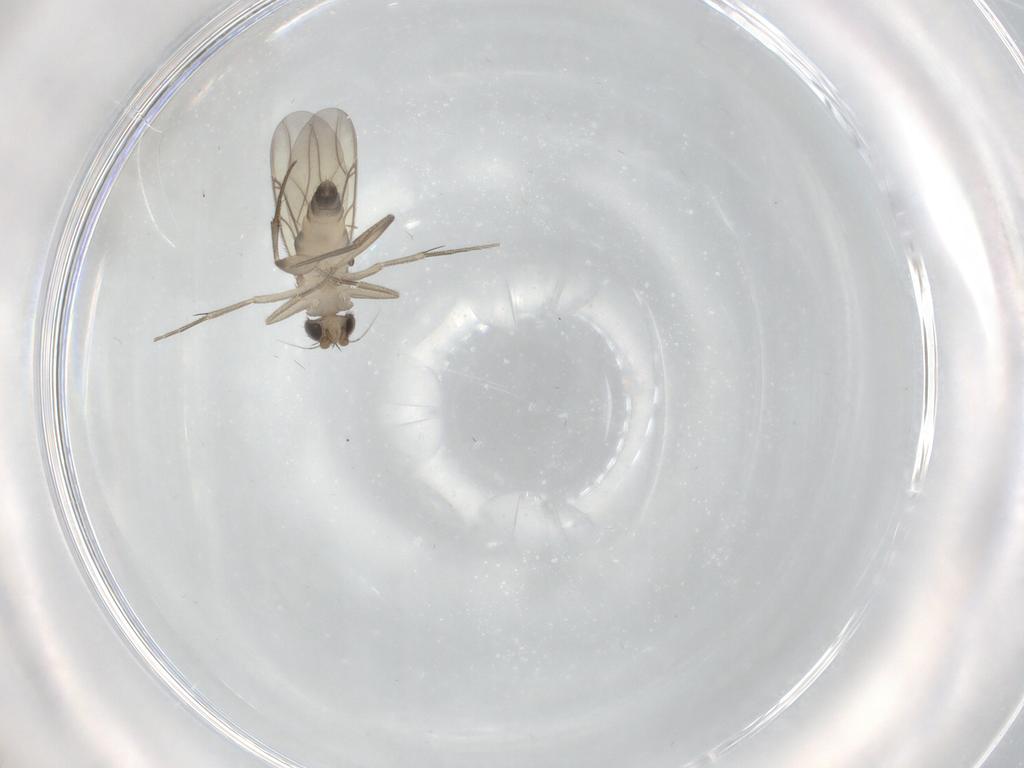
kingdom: Animalia
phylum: Arthropoda
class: Insecta
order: Diptera
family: Phoridae
